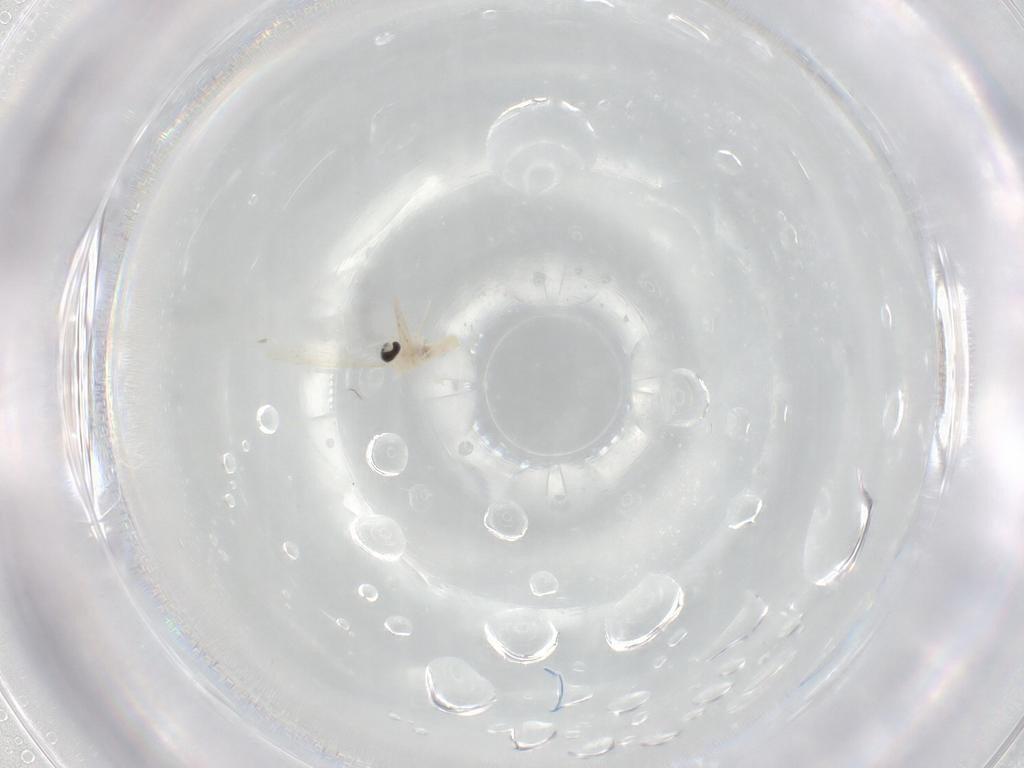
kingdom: Animalia
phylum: Arthropoda
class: Insecta
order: Diptera
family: Cecidomyiidae
